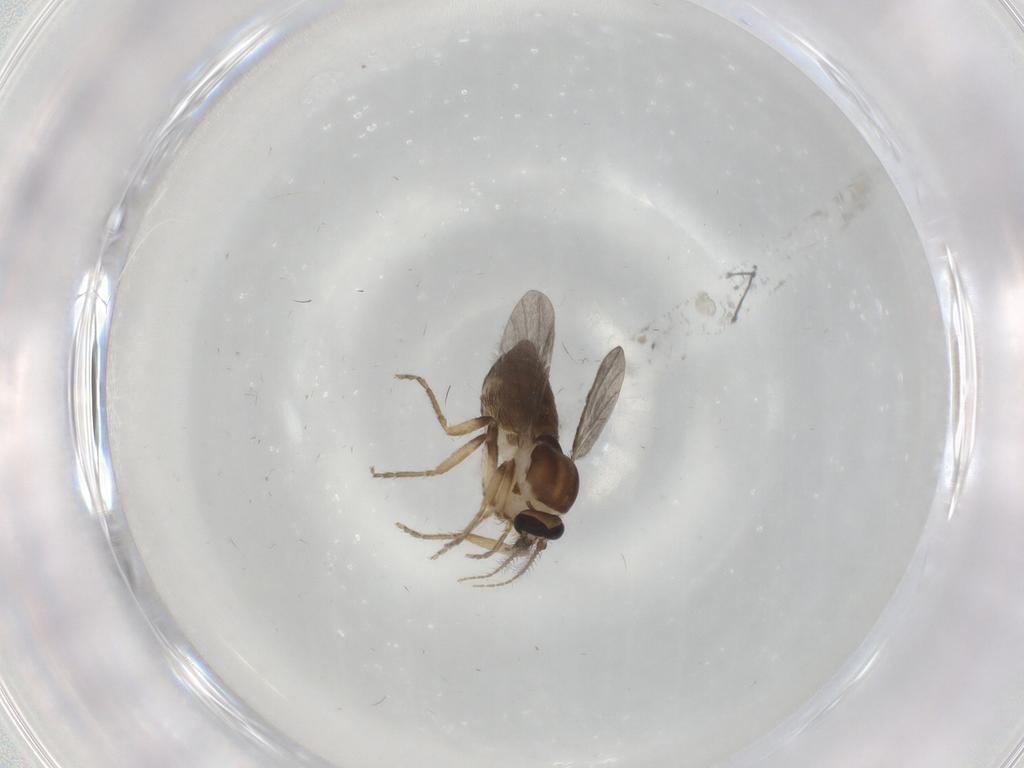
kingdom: Animalia
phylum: Arthropoda
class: Insecta
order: Diptera
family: Ceratopogonidae
